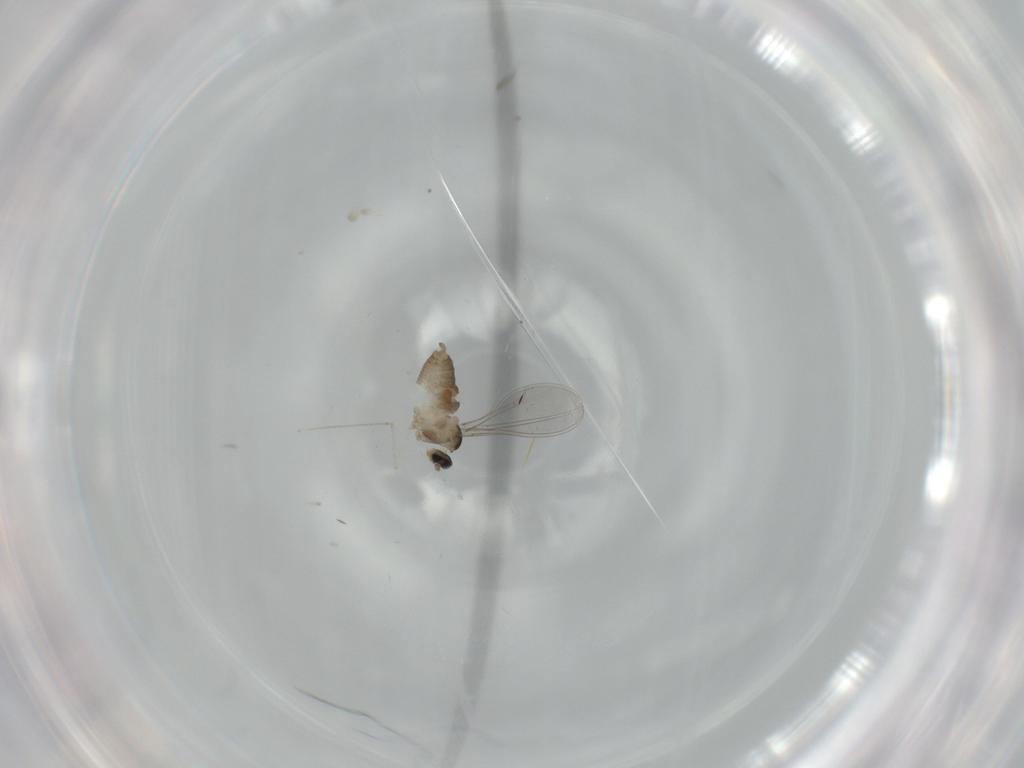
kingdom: Animalia
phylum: Arthropoda
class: Insecta
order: Diptera
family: Cecidomyiidae
